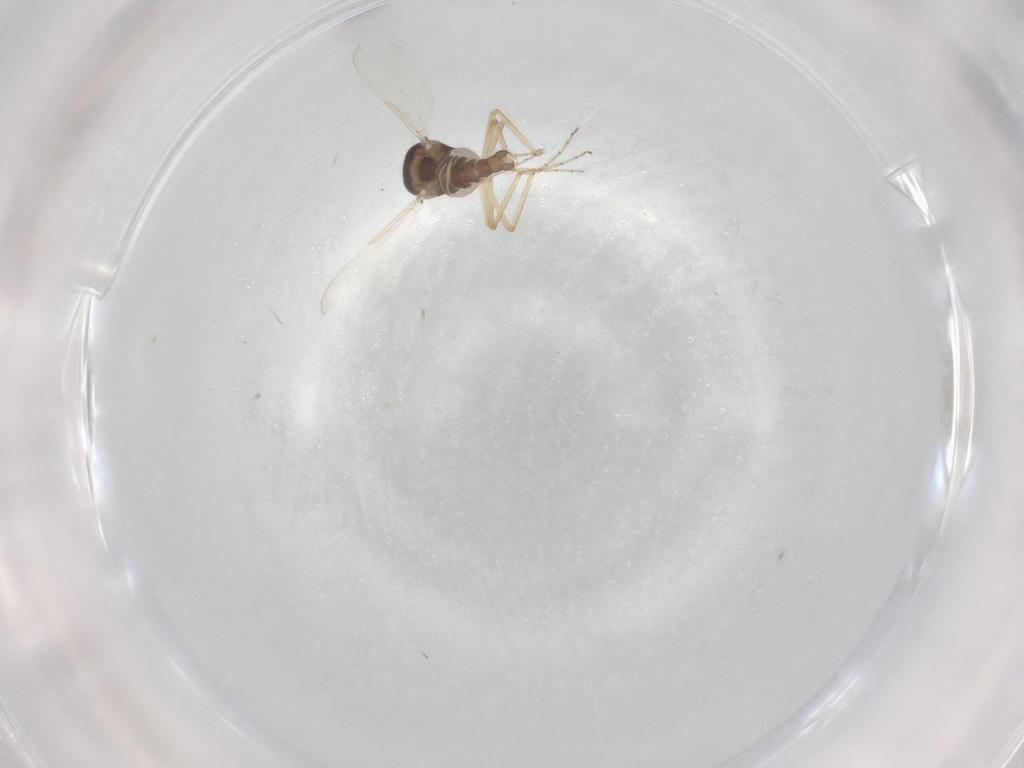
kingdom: Animalia
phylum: Arthropoda
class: Insecta
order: Diptera
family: Ceratopogonidae
